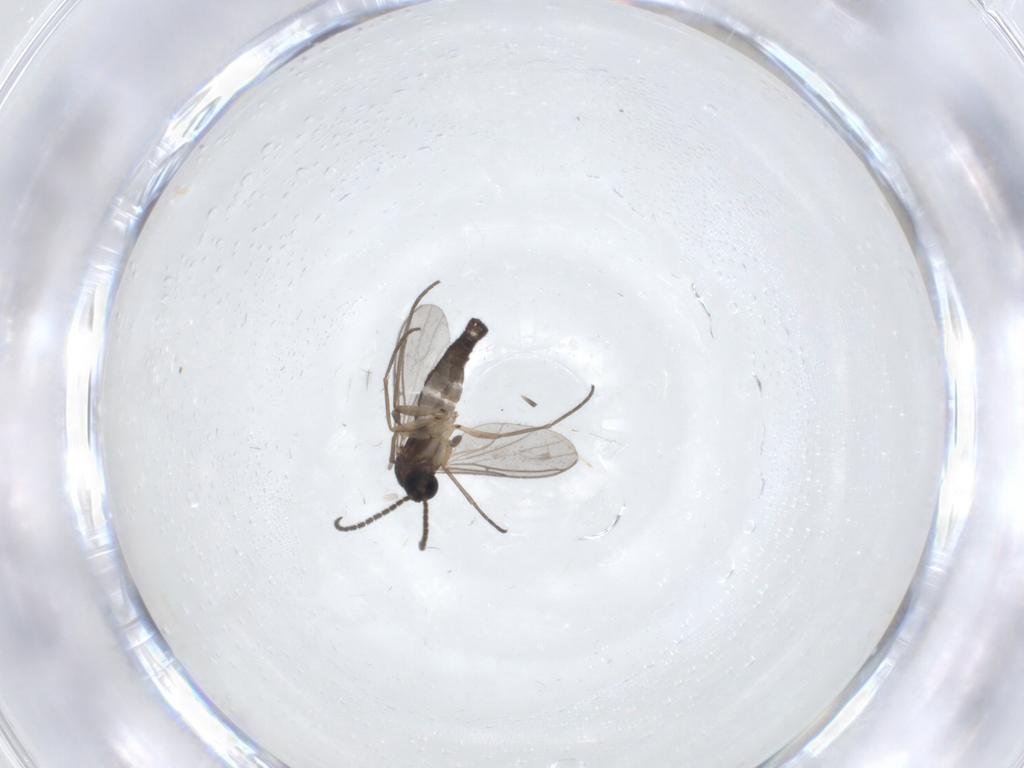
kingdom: Animalia
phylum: Arthropoda
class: Insecta
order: Diptera
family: Sciaridae
